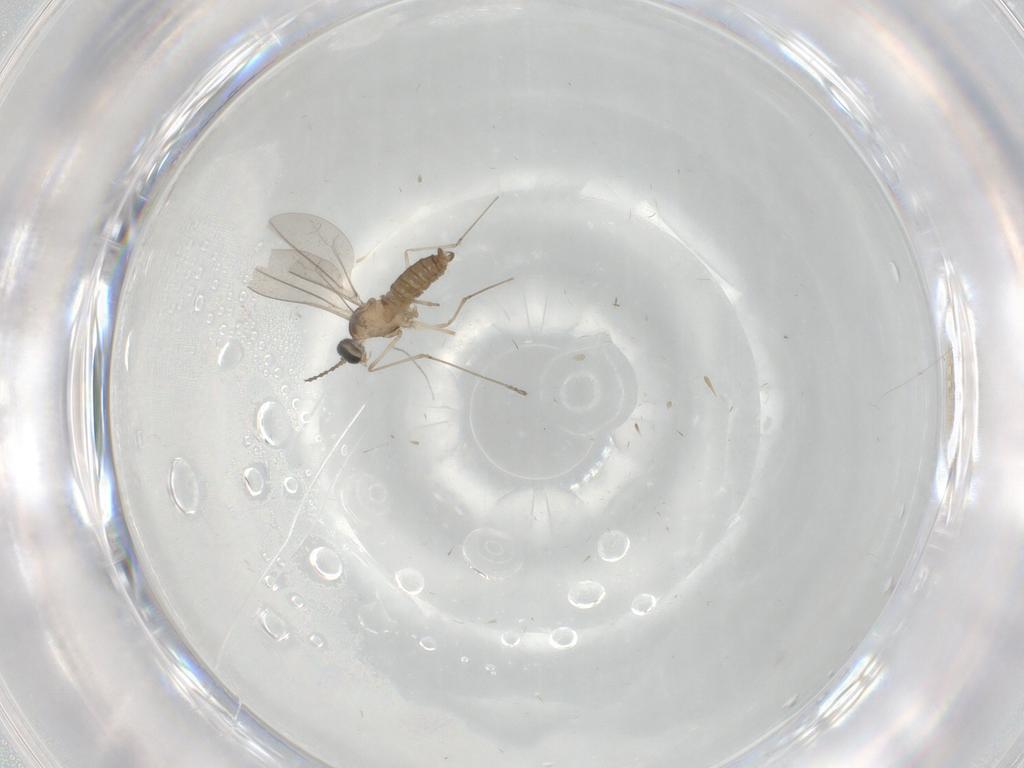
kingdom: Animalia
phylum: Arthropoda
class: Insecta
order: Diptera
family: Cecidomyiidae
